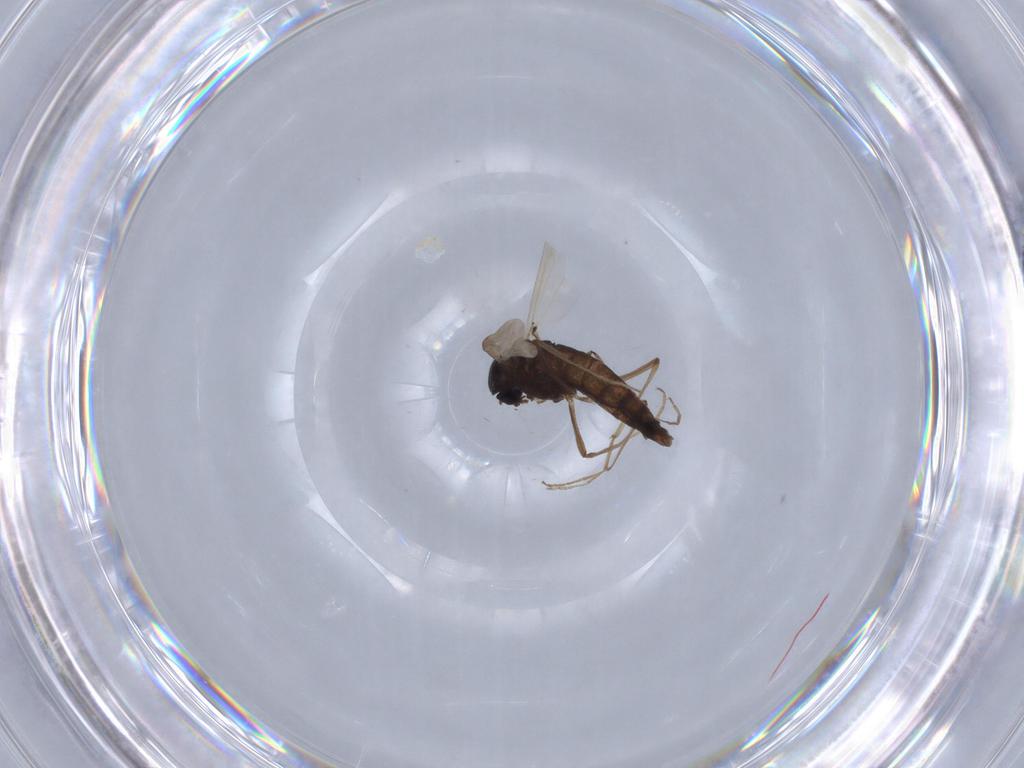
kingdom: Animalia
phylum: Arthropoda
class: Insecta
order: Diptera
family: Chironomidae
